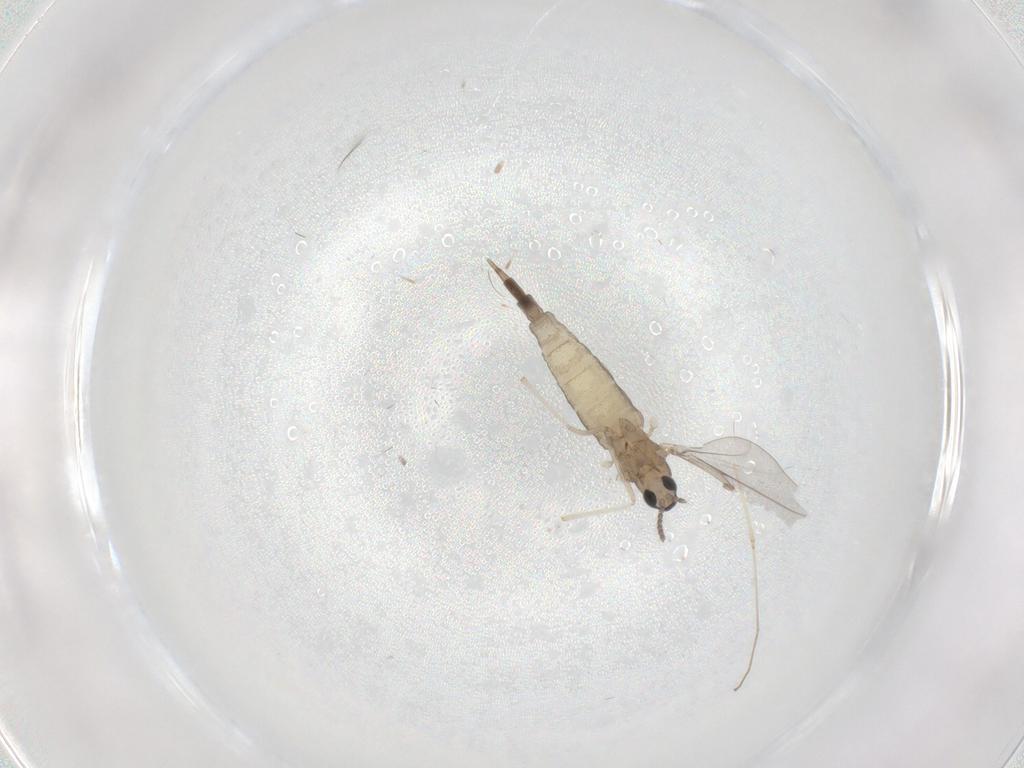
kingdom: Animalia
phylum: Arthropoda
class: Insecta
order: Diptera
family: Cecidomyiidae
